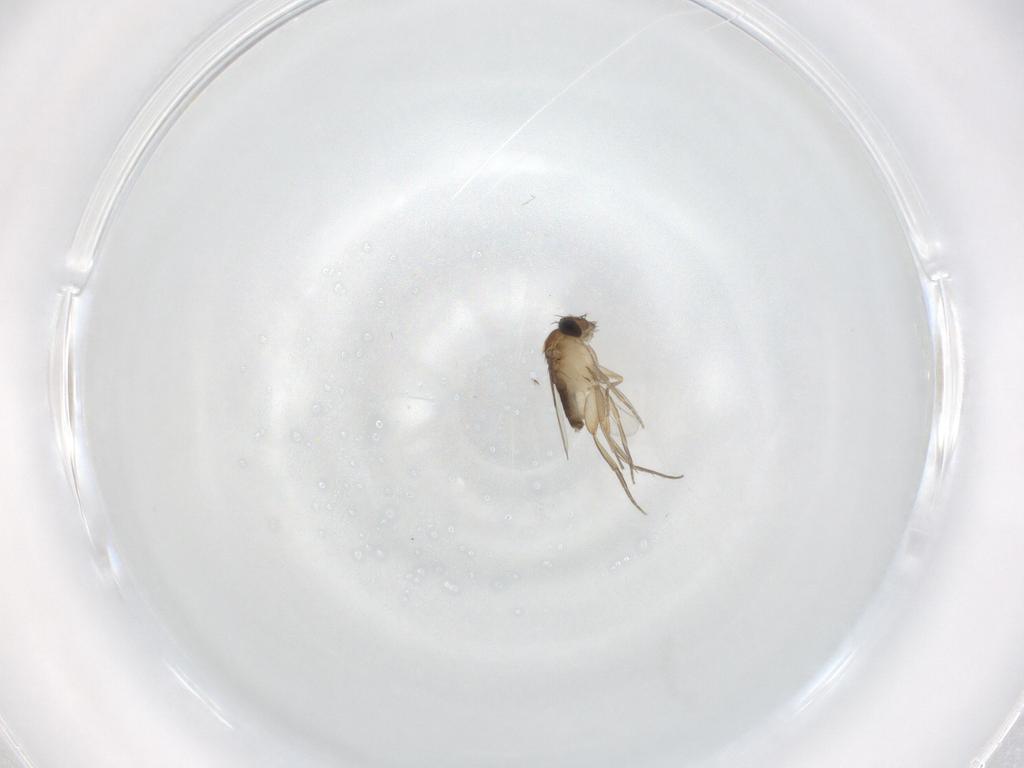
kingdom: Animalia
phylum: Arthropoda
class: Insecta
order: Diptera
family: Phoridae
